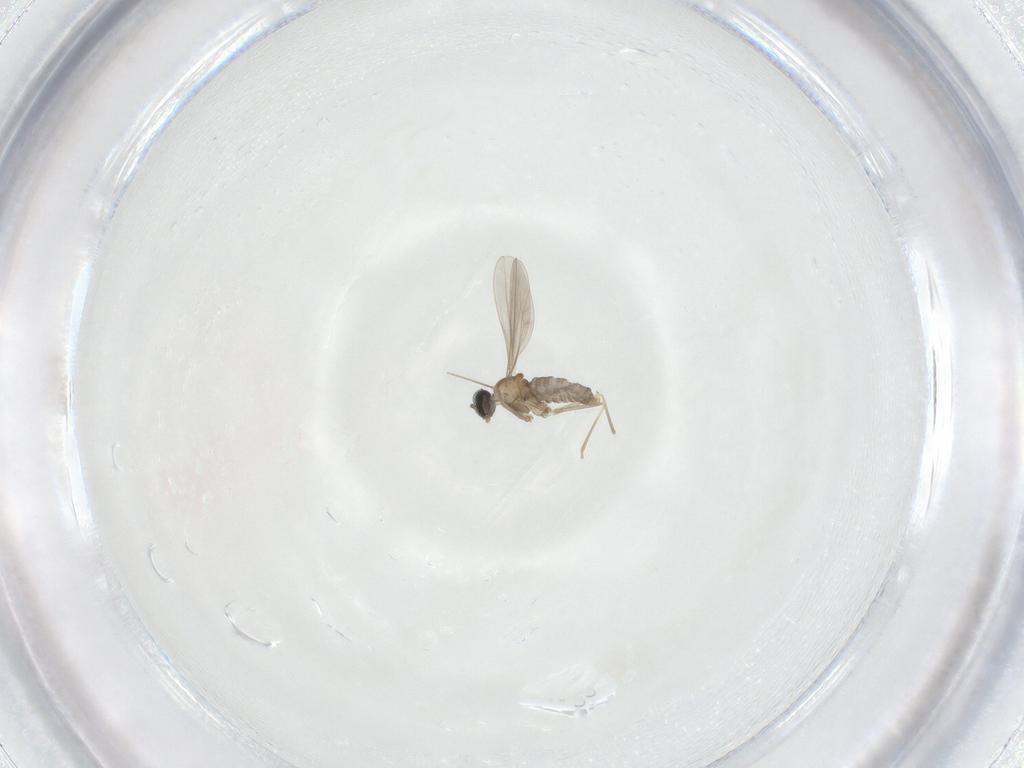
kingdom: Animalia
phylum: Arthropoda
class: Insecta
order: Diptera
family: Cecidomyiidae
